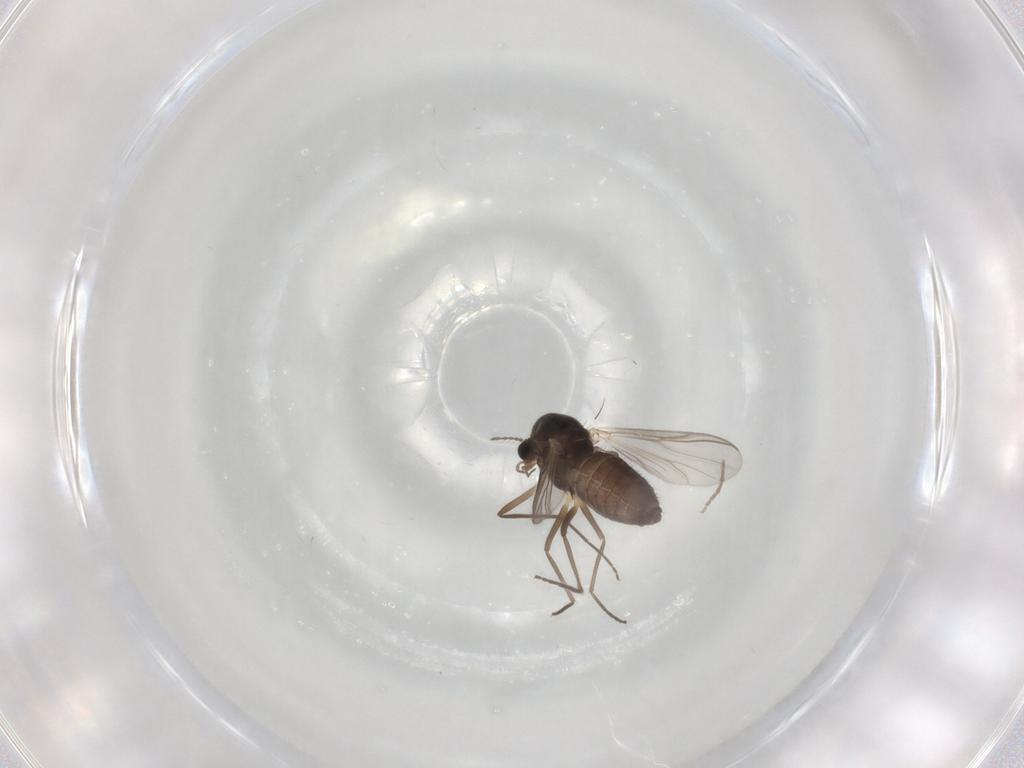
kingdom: Animalia
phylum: Arthropoda
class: Insecta
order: Diptera
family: Chironomidae
